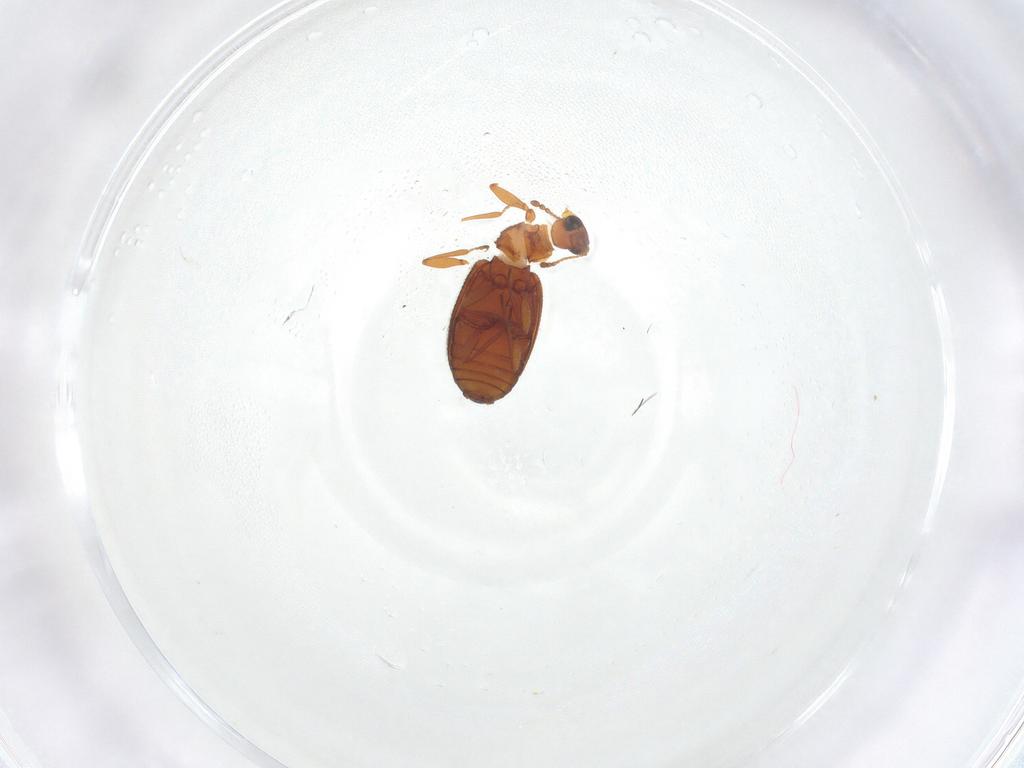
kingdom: Animalia
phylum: Arthropoda
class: Insecta
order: Coleoptera
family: Latridiidae
